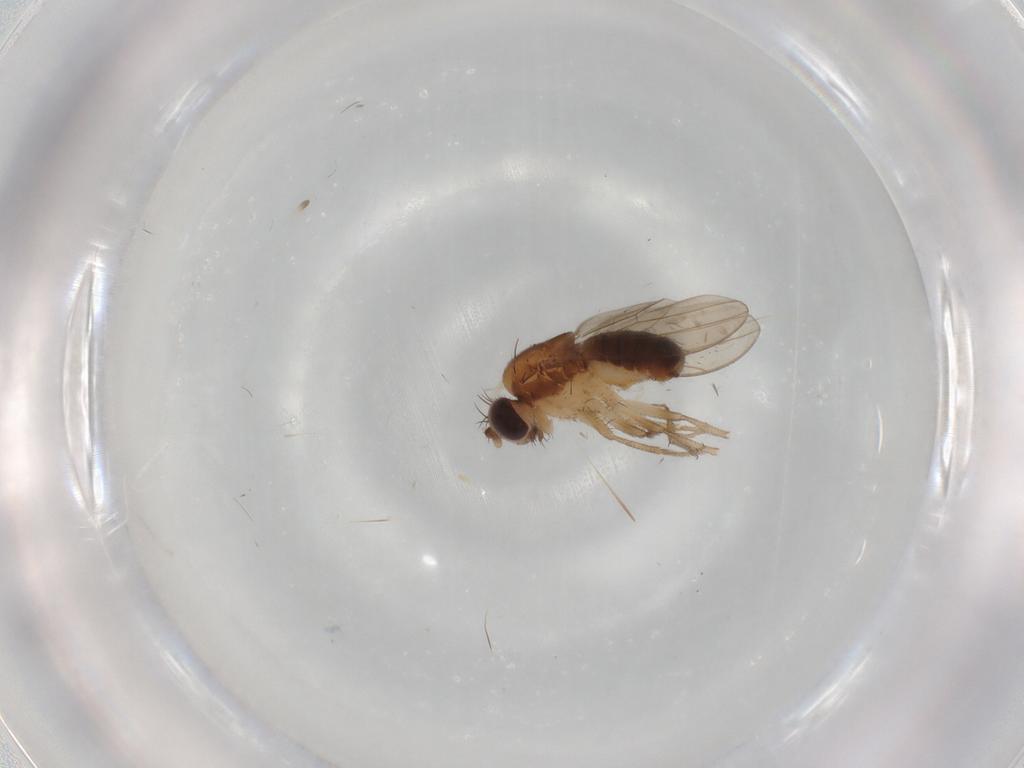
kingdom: Animalia
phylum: Arthropoda
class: Insecta
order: Diptera
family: Drosophilidae
